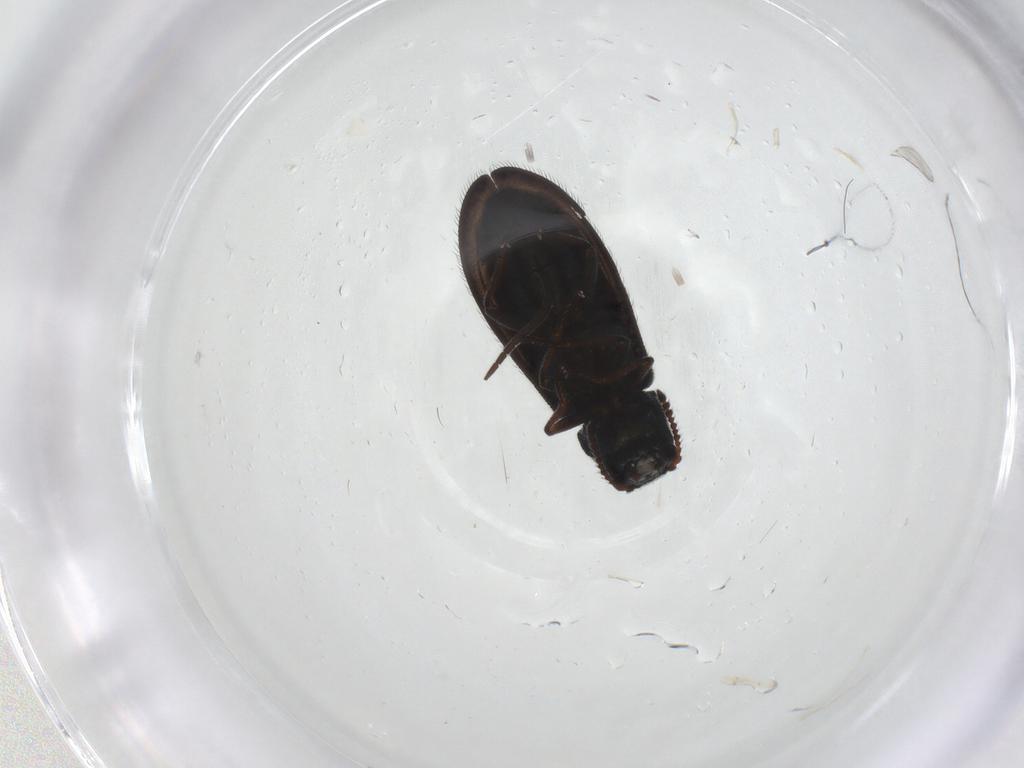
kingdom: Animalia
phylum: Arthropoda
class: Insecta
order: Coleoptera
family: Melyridae
